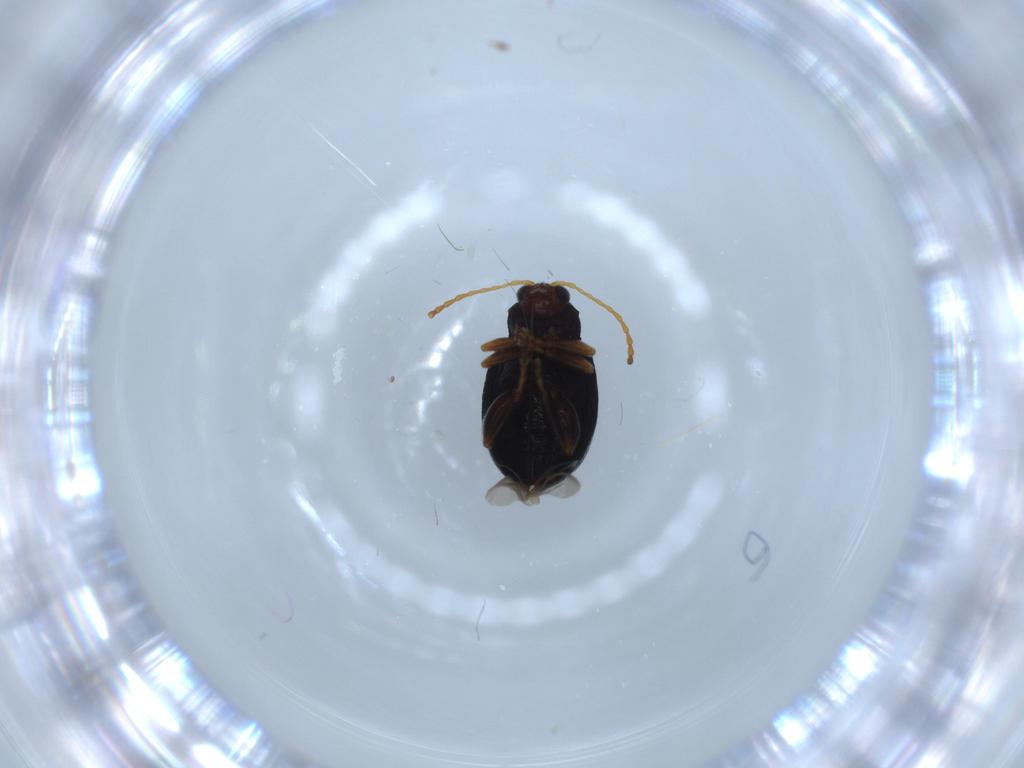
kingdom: Animalia
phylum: Arthropoda
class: Insecta
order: Coleoptera
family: Chrysomelidae
